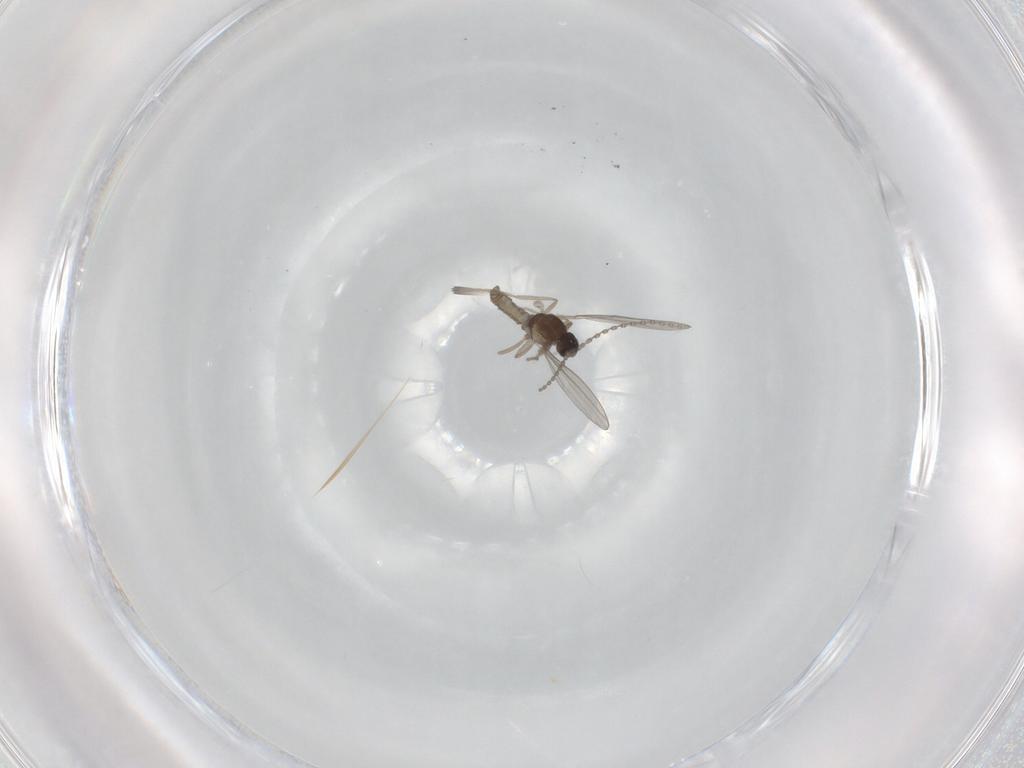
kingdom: Animalia
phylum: Arthropoda
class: Insecta
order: Diptera
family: Cecidomyiidae
